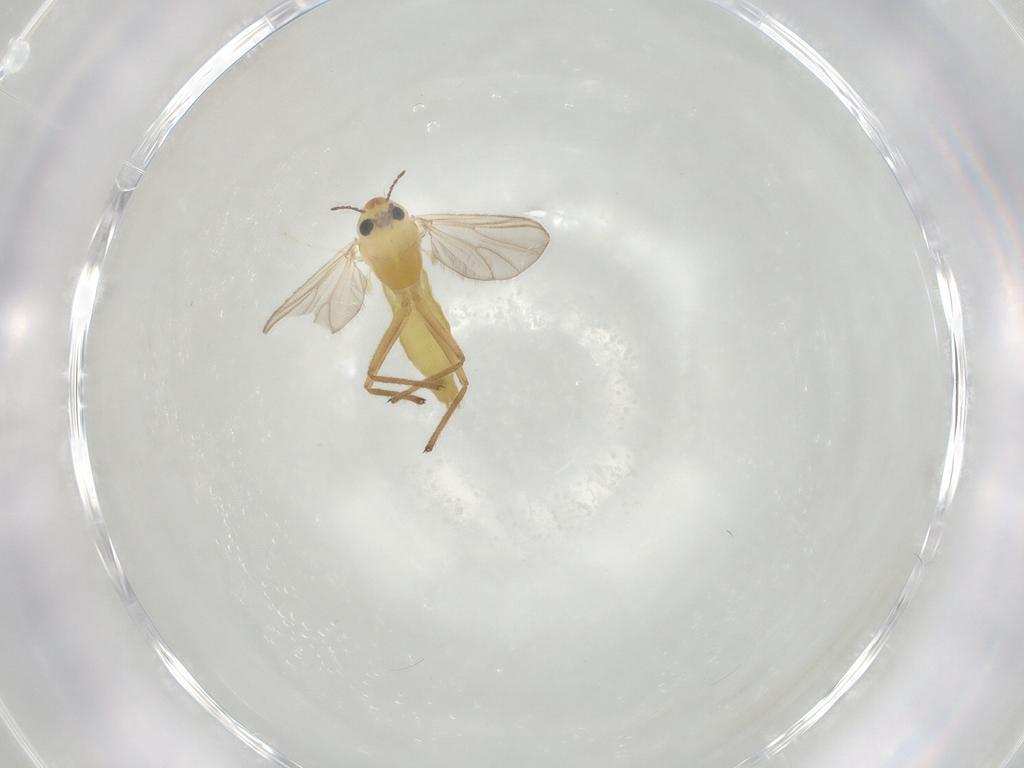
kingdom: Animalia
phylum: Arthropoda
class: Insecta
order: Diptera
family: Chironomidae
